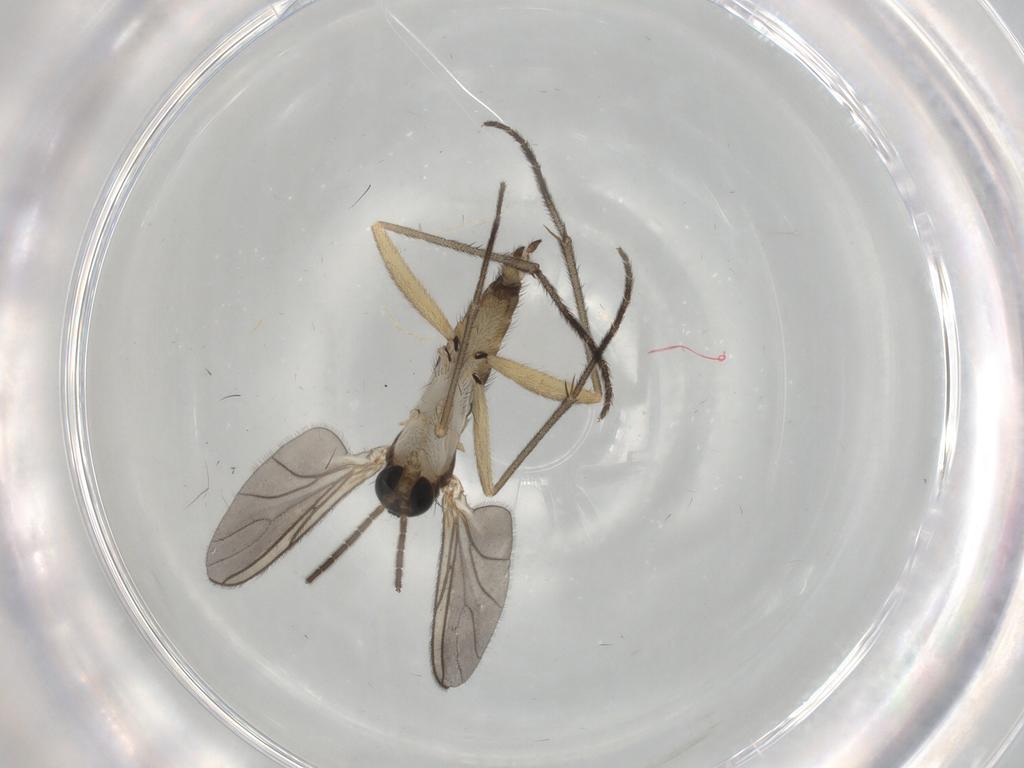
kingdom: Animalia
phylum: Arthropoda
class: Insecta
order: Diptera
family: Sciaridae
